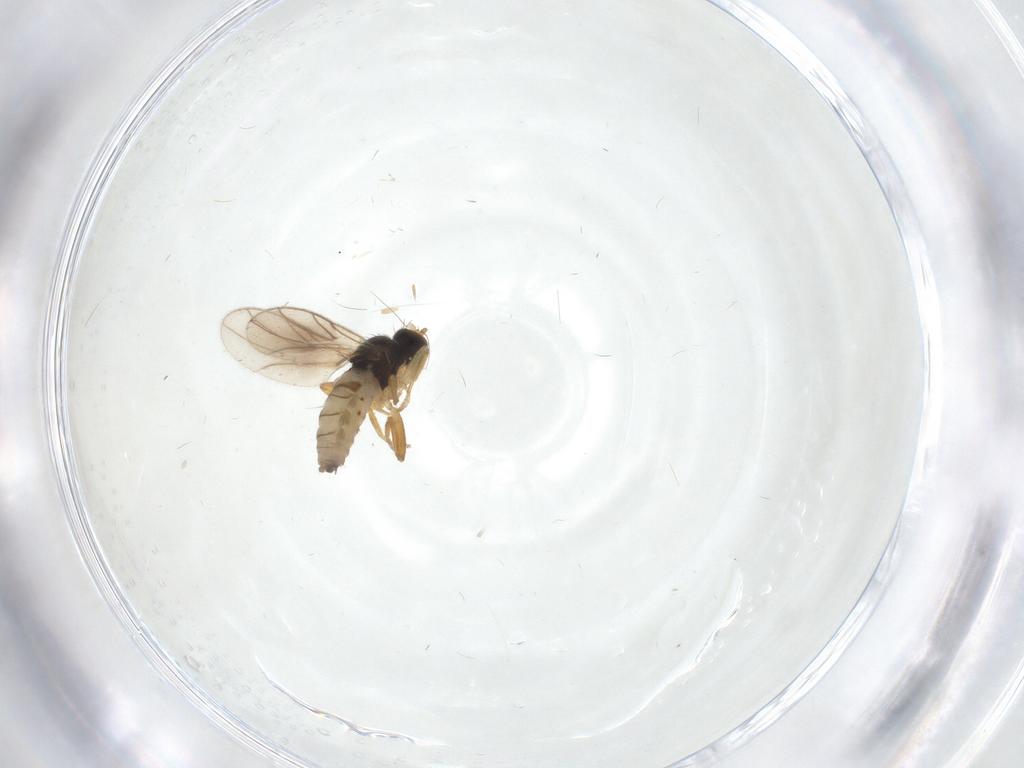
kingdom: Animalia
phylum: Arthropoda
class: Insecta
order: Diptera
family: Hybotidae
